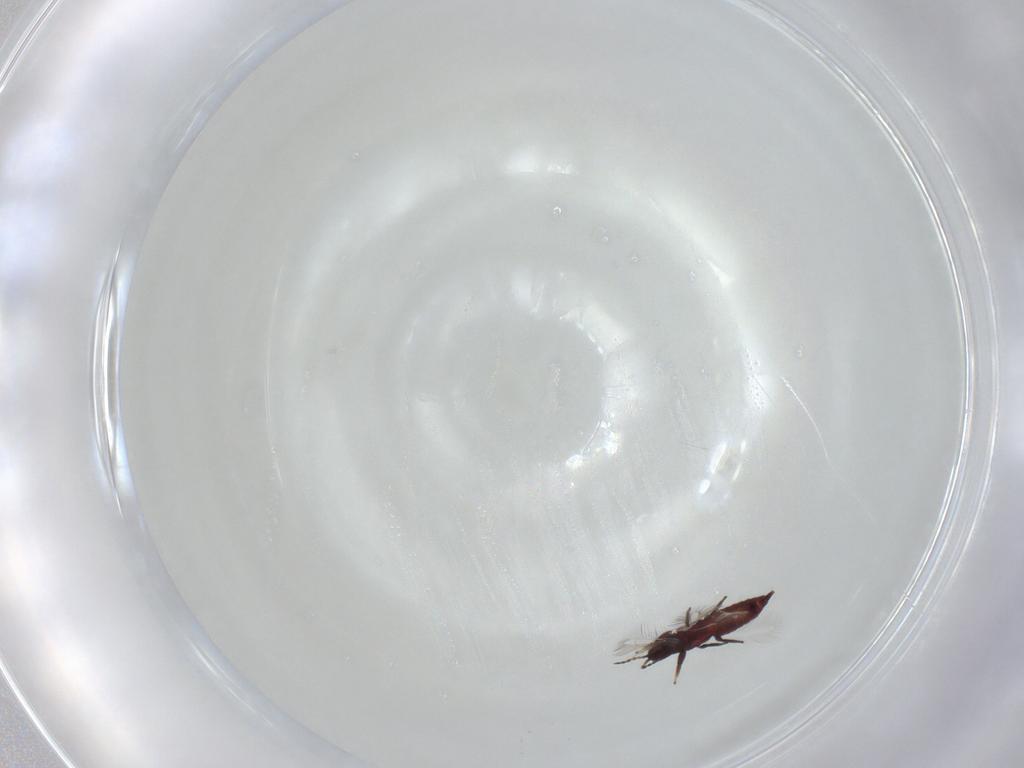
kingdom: Animalia
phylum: Arthropoda
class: Insecta
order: Thysanoptera
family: Phlaeothripidae
